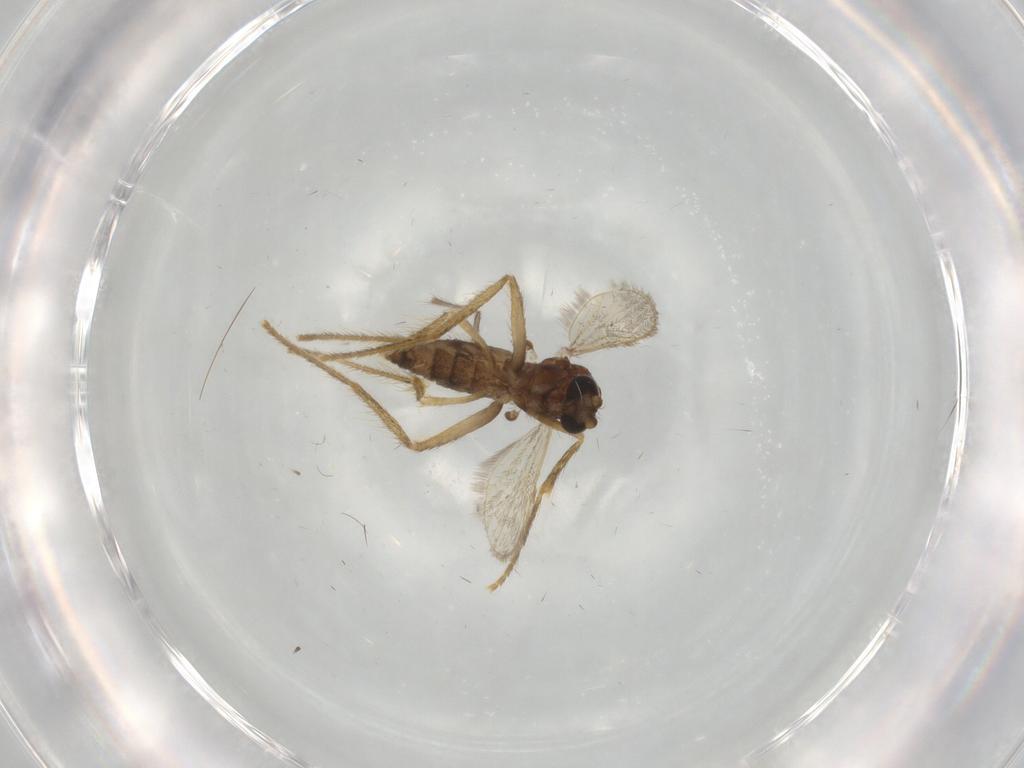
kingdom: Animalia
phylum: Arthropoda
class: Insecta
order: Diptera
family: Corethrellidae
